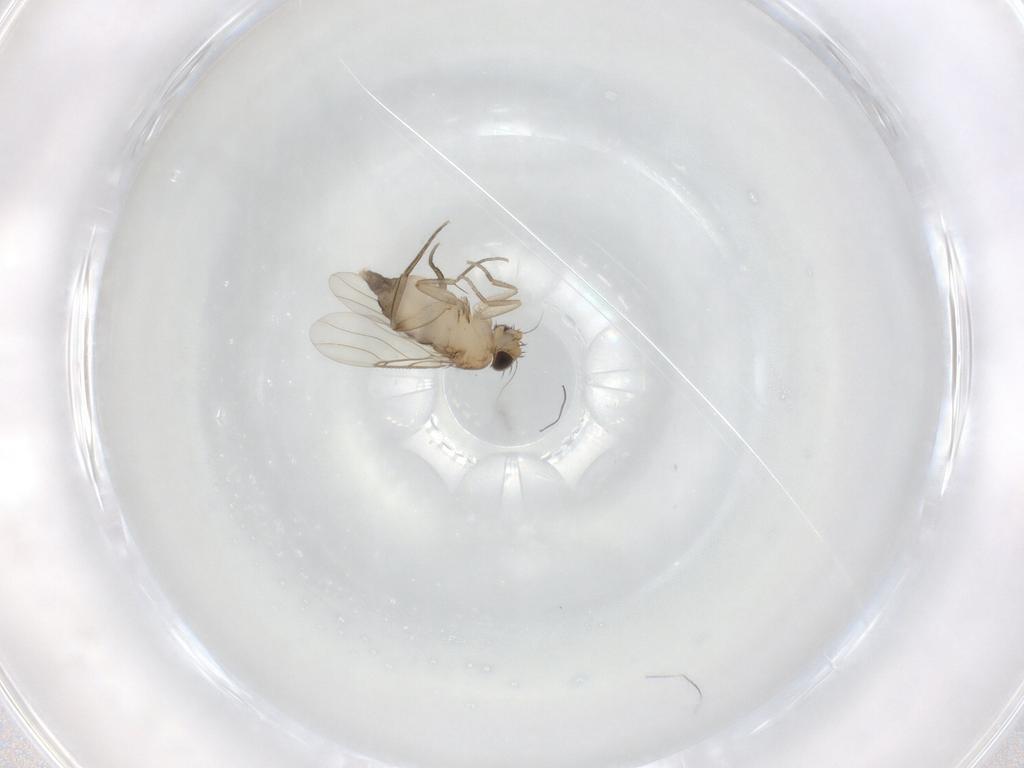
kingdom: Animalia
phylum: Arthropoda
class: Insecta
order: Diptera
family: Phoridae
